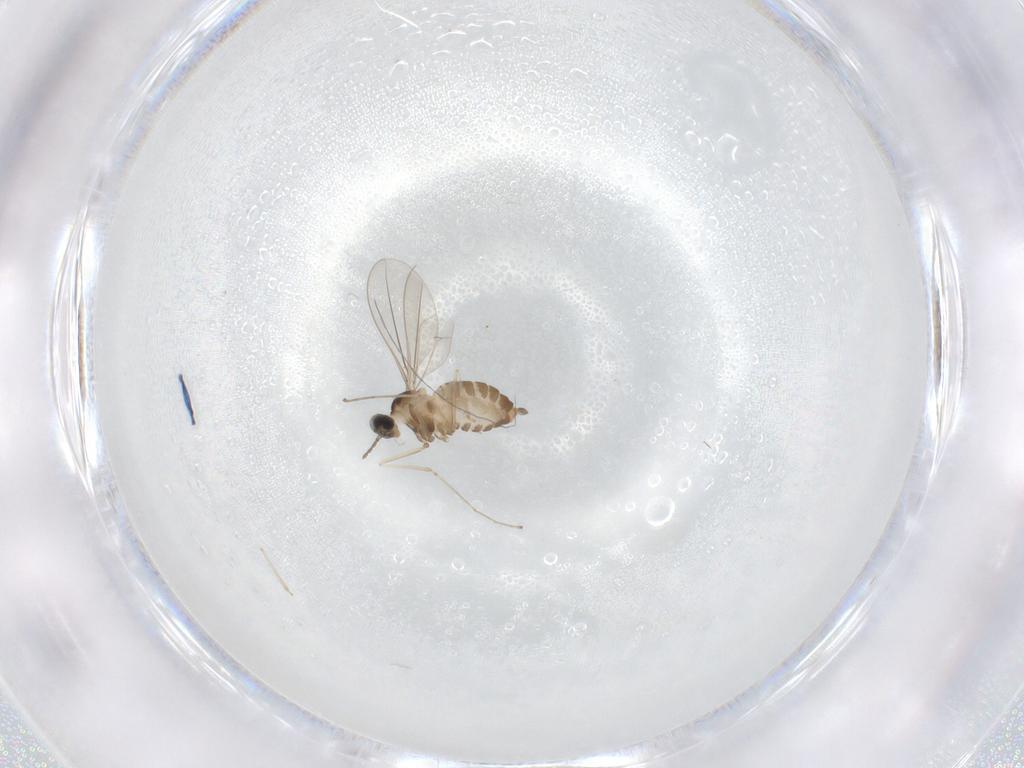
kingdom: Animalia
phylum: Arthropoda
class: Insecta
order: Diptera
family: Cecidomyiidae
